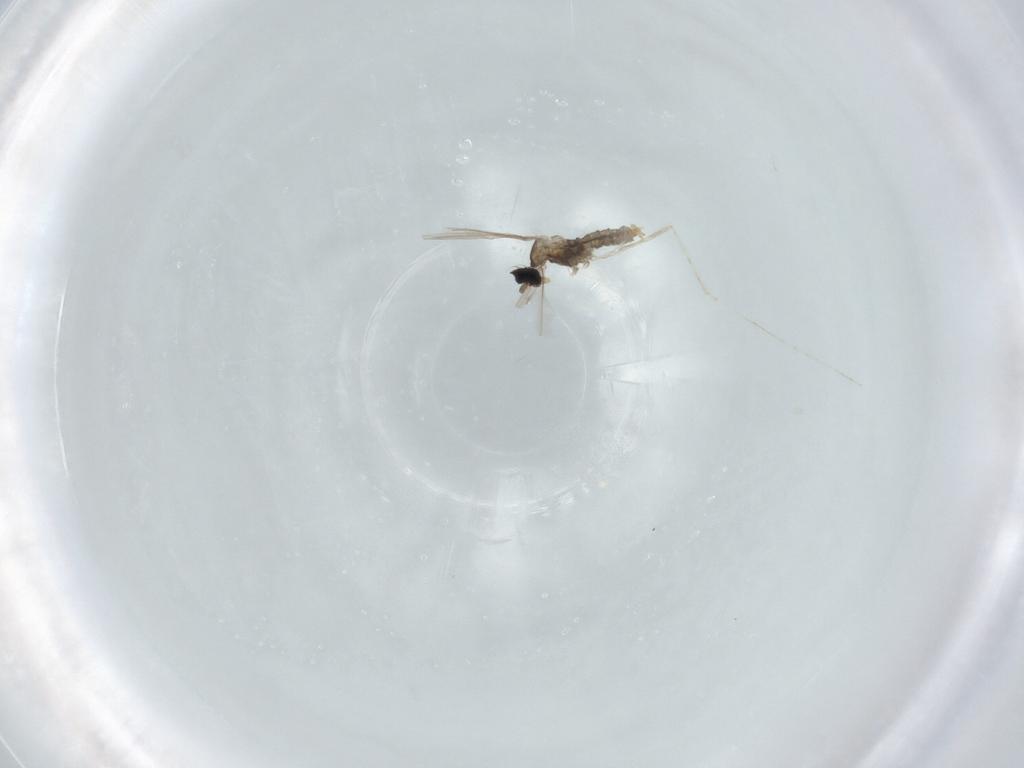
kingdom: Animalia
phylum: Arthropoda
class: Insecta
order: Diptera
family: Cecidomyiidae
